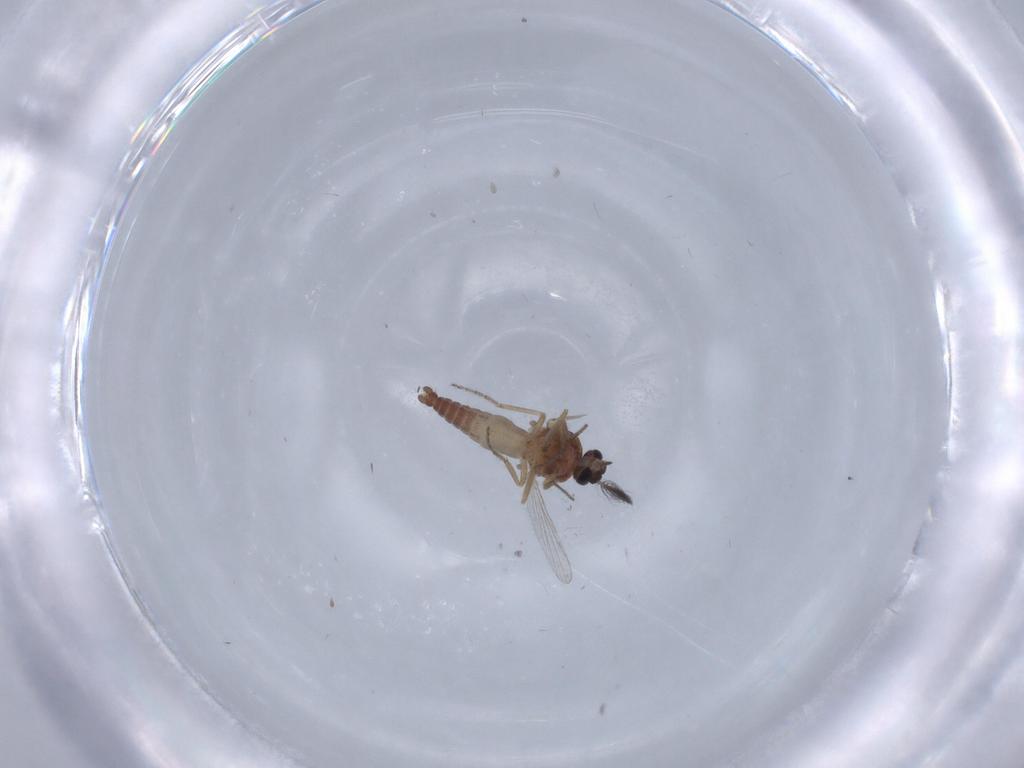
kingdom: Animalia
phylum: Arthropoda
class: Insecta
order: Diptera
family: Ceratopogonidae
